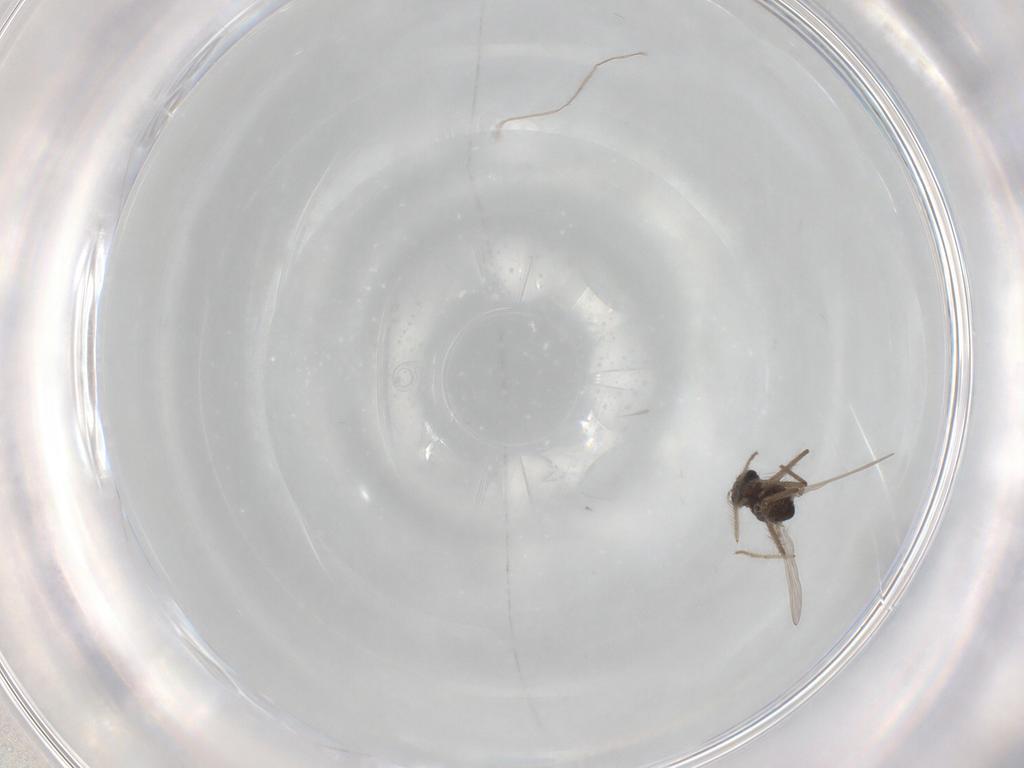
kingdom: Animalia
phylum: Arthropoda
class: Insecta
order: Diptera
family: Chironomidae
